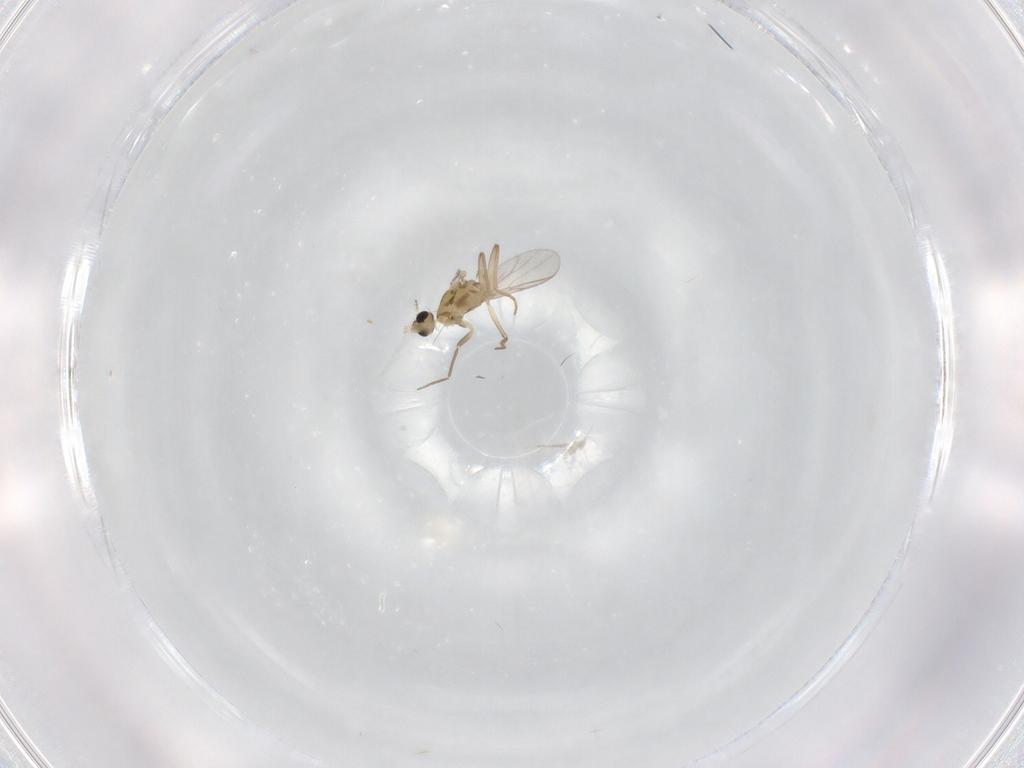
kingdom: Animalia
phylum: Arthropoda
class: Insecta
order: Diptera
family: Chironomidae
